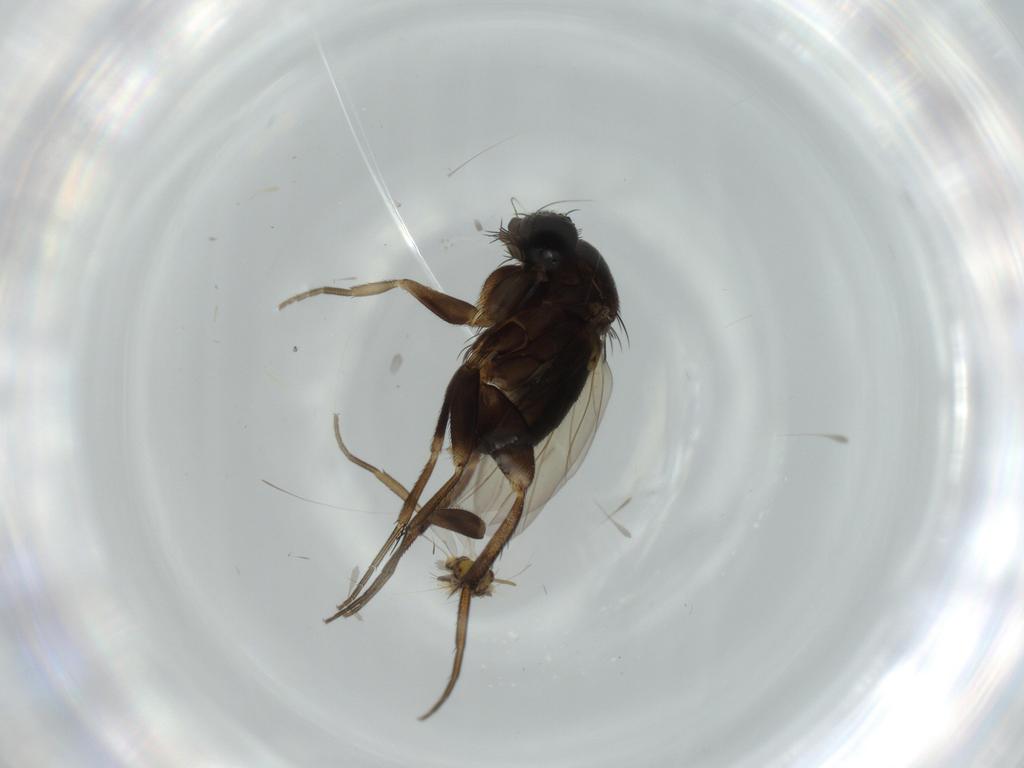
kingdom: Animalia
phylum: Arthropoda
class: Insecta
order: Diptera
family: Phoridae
